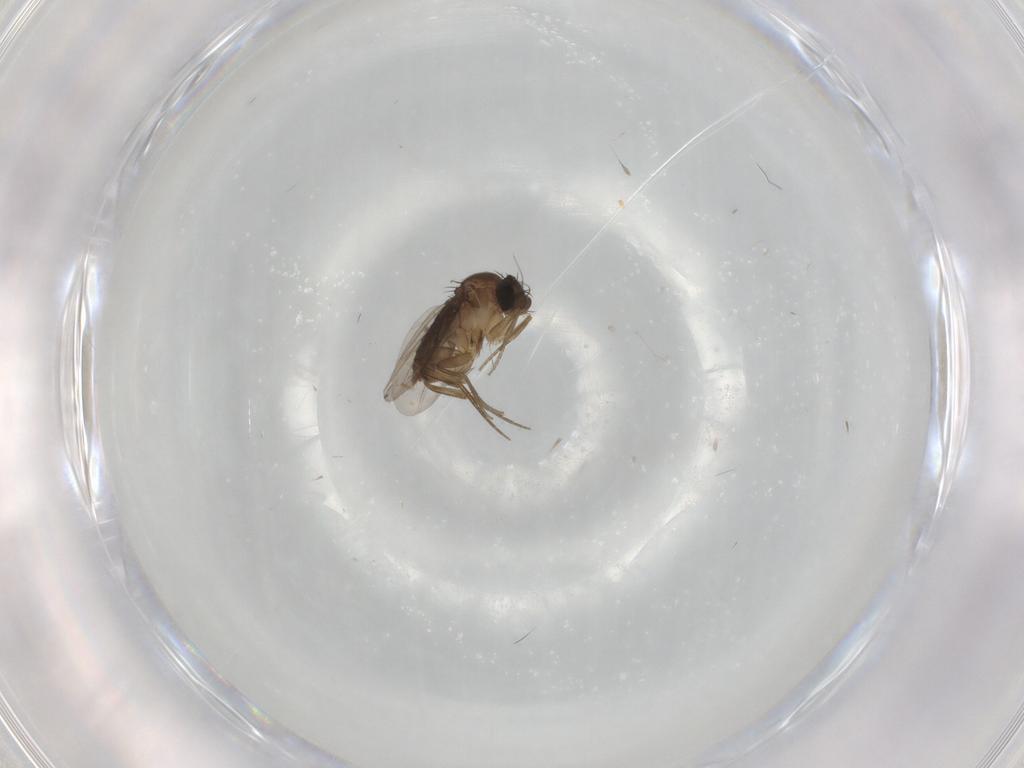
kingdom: Animalia
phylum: Arthropoda
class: Insecta
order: Diptera
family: Phoridae
